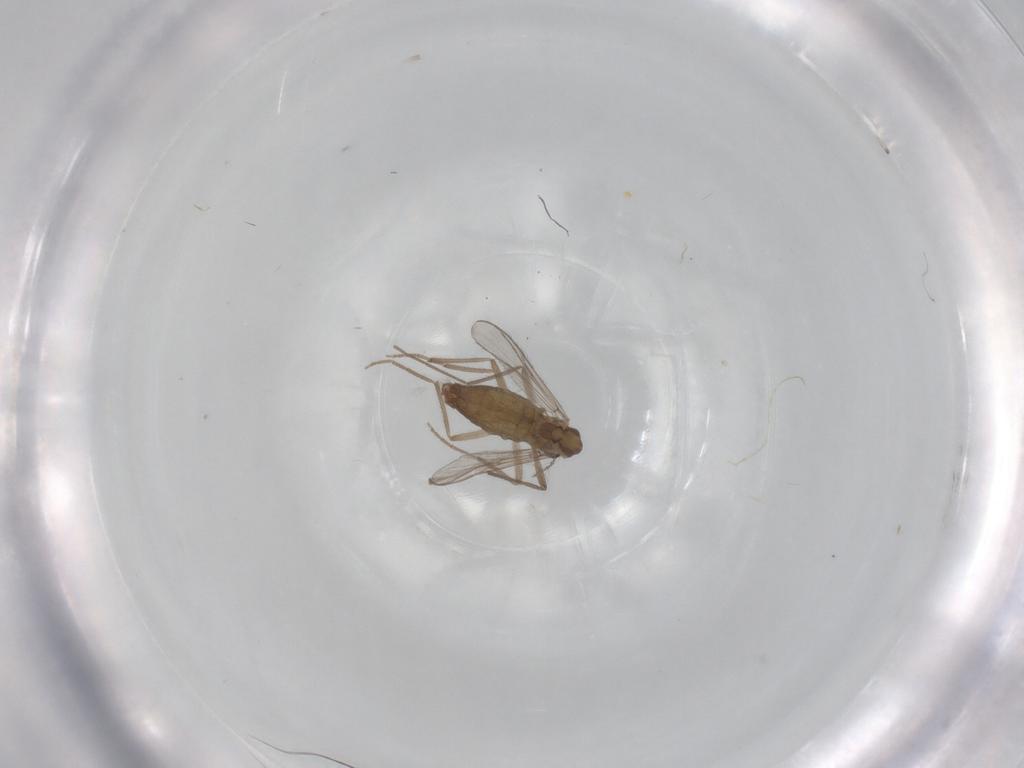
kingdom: Animalia
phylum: Arthropoda
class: Insecta
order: Diptera
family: Chironomidae
